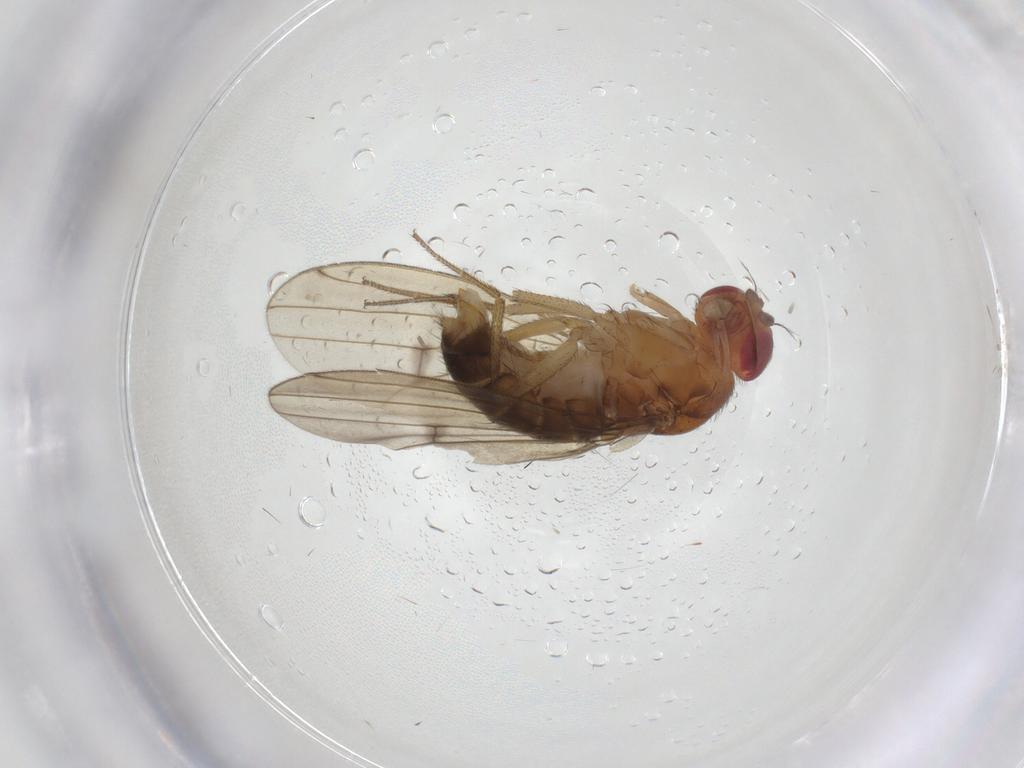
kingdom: Animalia
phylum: Arthropoda
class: Insecta
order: Diptera
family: Drosophilidae
